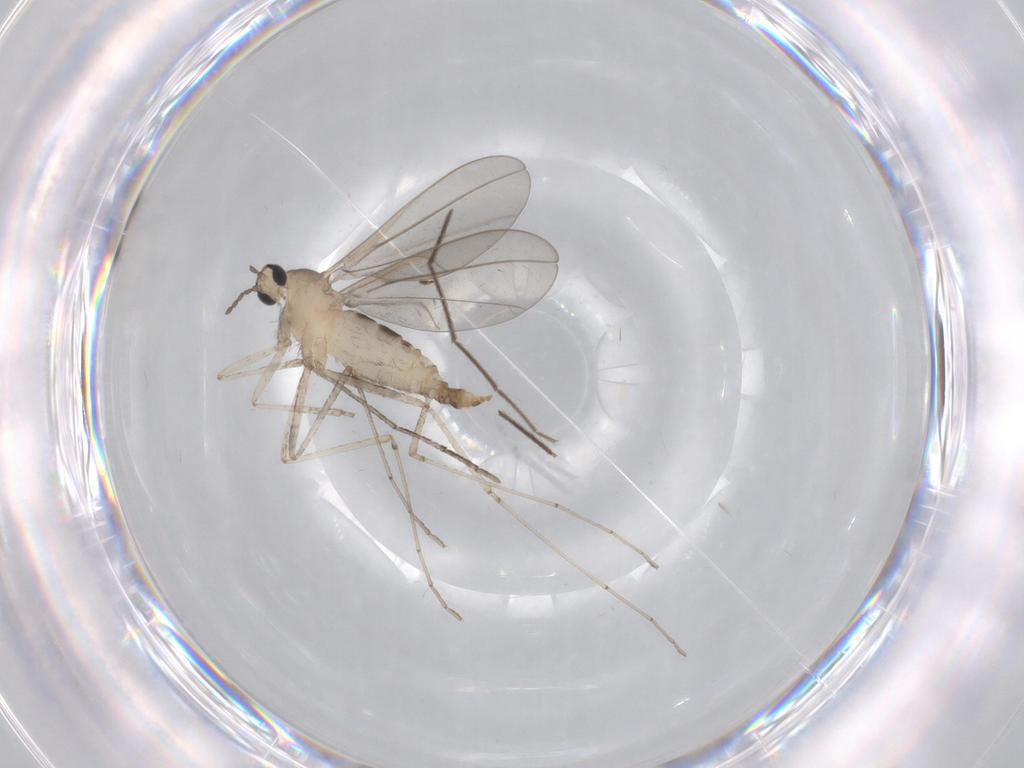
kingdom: Animalia
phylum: Arthropoda
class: Insecta
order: Diptera
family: Chironomidae
